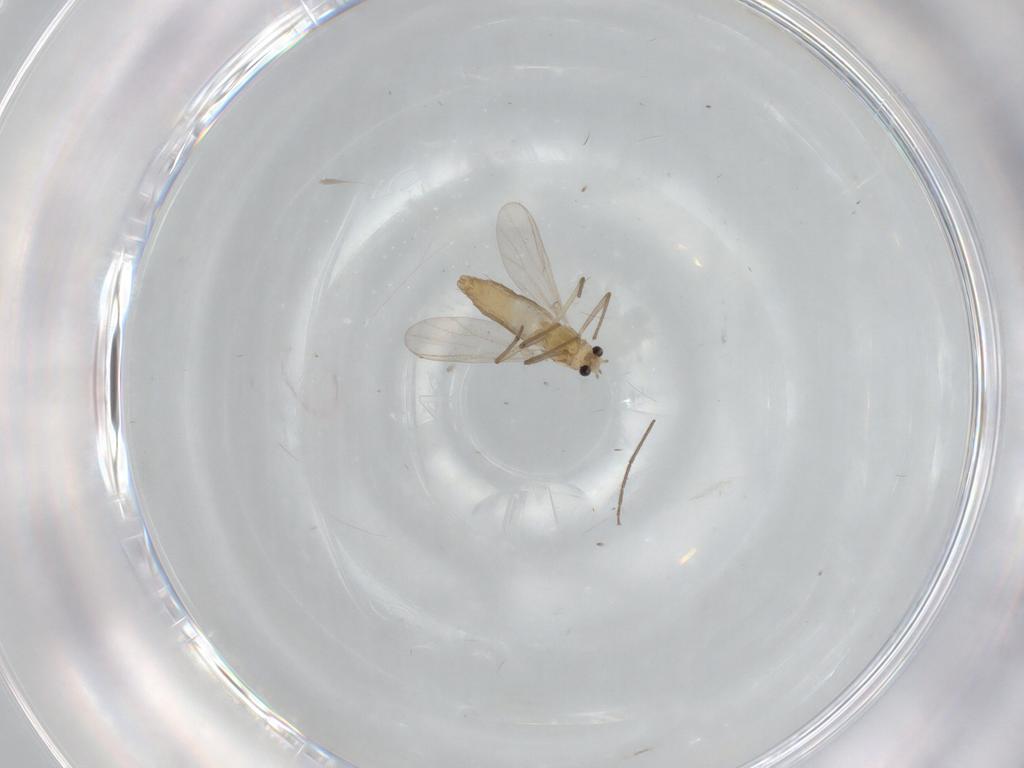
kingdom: Animalia
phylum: Arthropoda
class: Insecta
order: Diptera
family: Chironomidae
